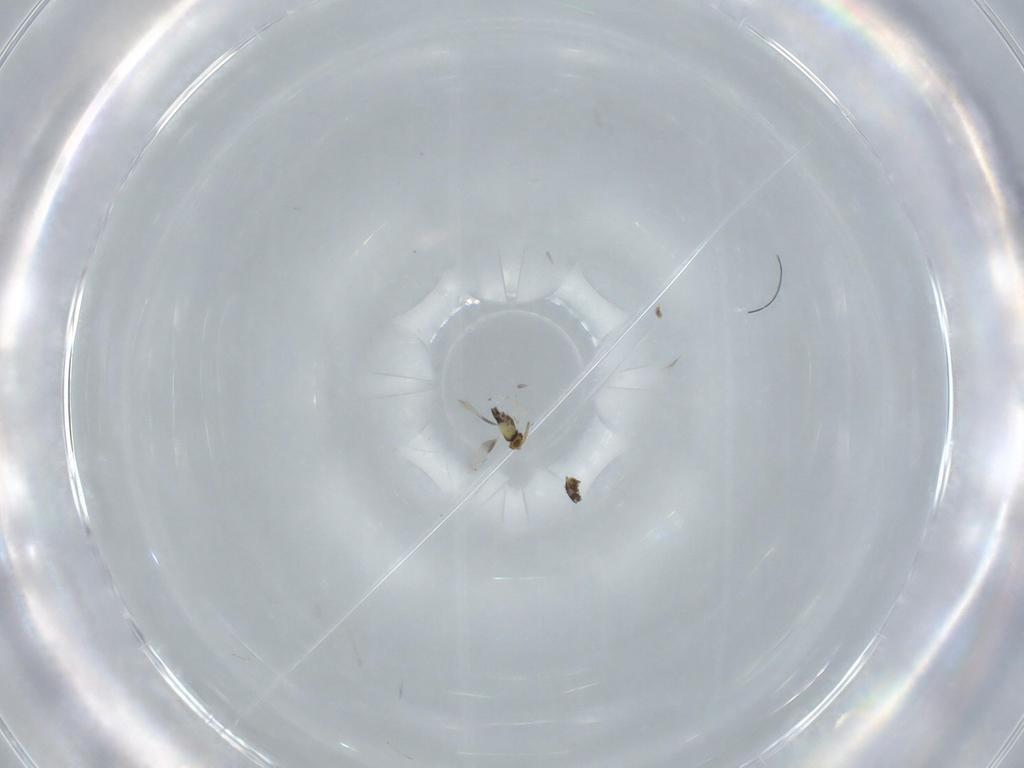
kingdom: Animalia
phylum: Arthropoda
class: Insecta
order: Hymenoptera
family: Aphelinidae
